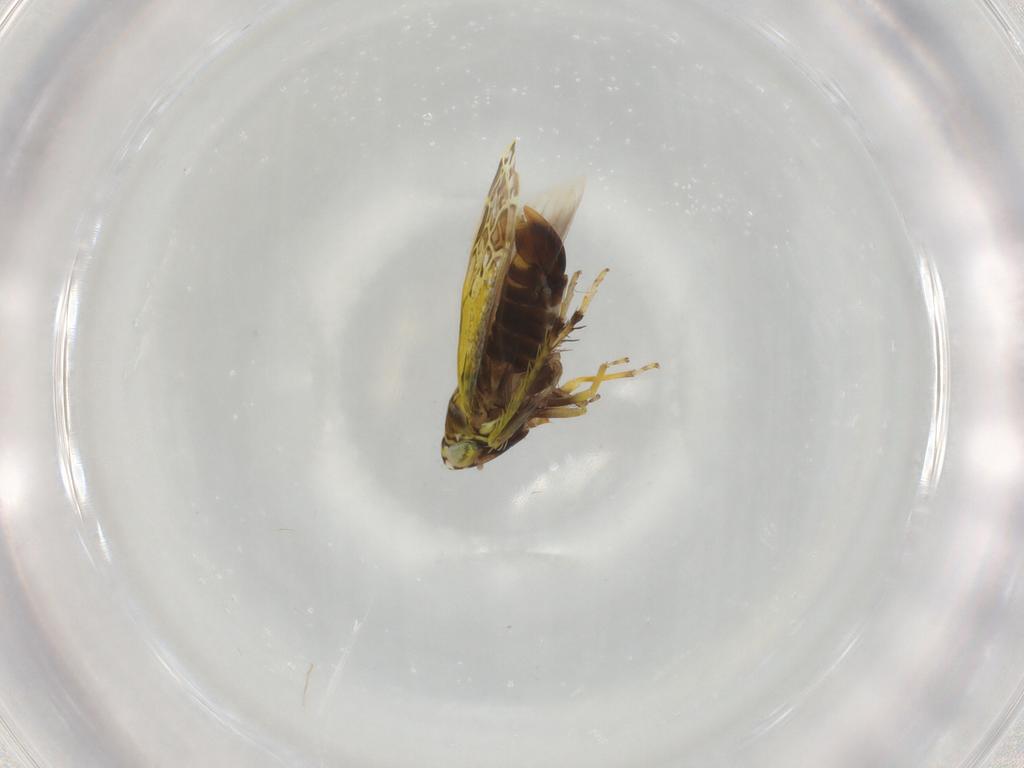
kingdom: Animalia
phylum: Arthropoda
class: Insecta
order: Hemiptera
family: Cicadellidae
